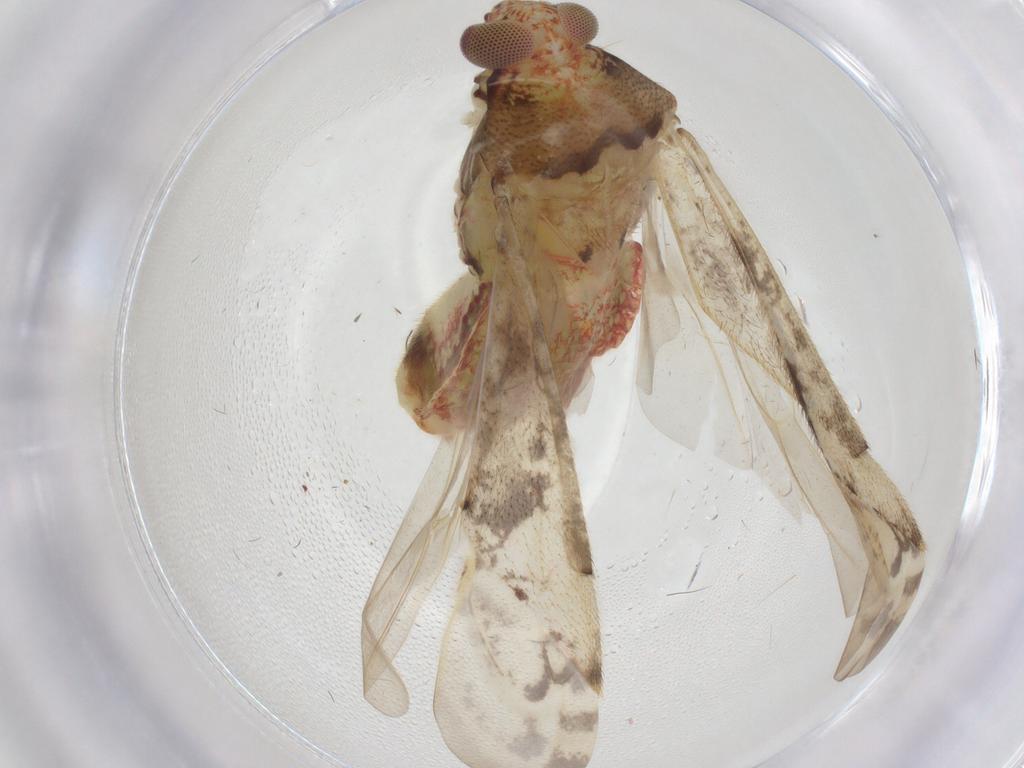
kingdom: Animalia
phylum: Arthropoda
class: Insecta
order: Hemiptera
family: Miridae
